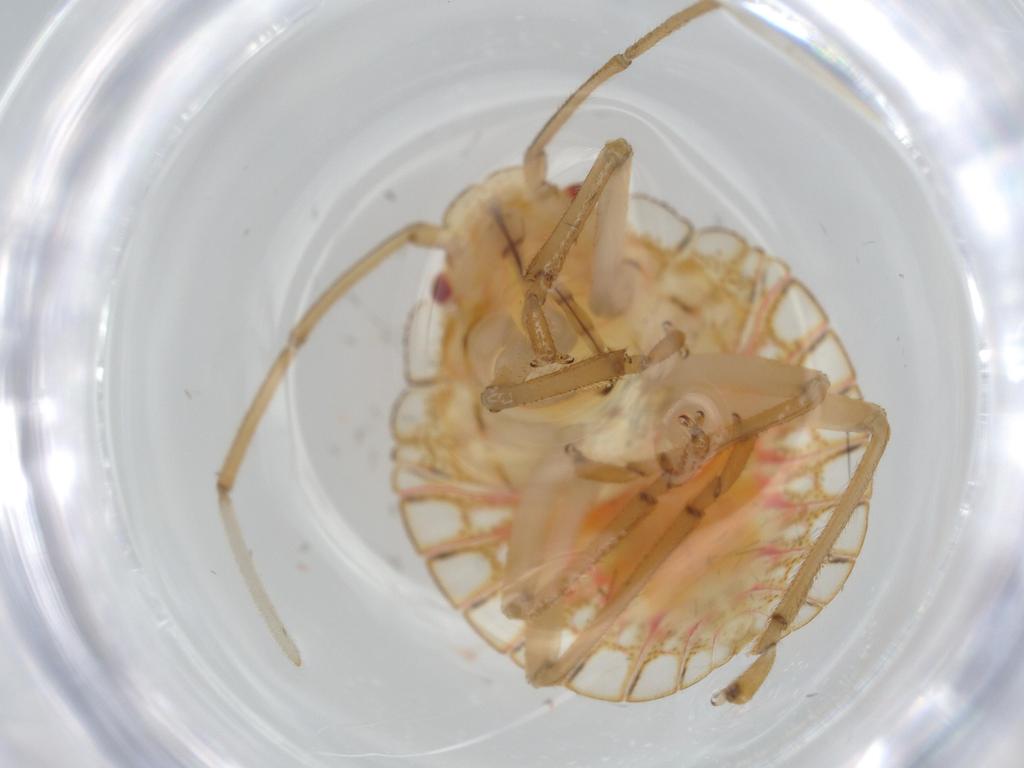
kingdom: Animalia
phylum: Arthropoda
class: Insecta
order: Hemiptera
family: Pentatomidae
